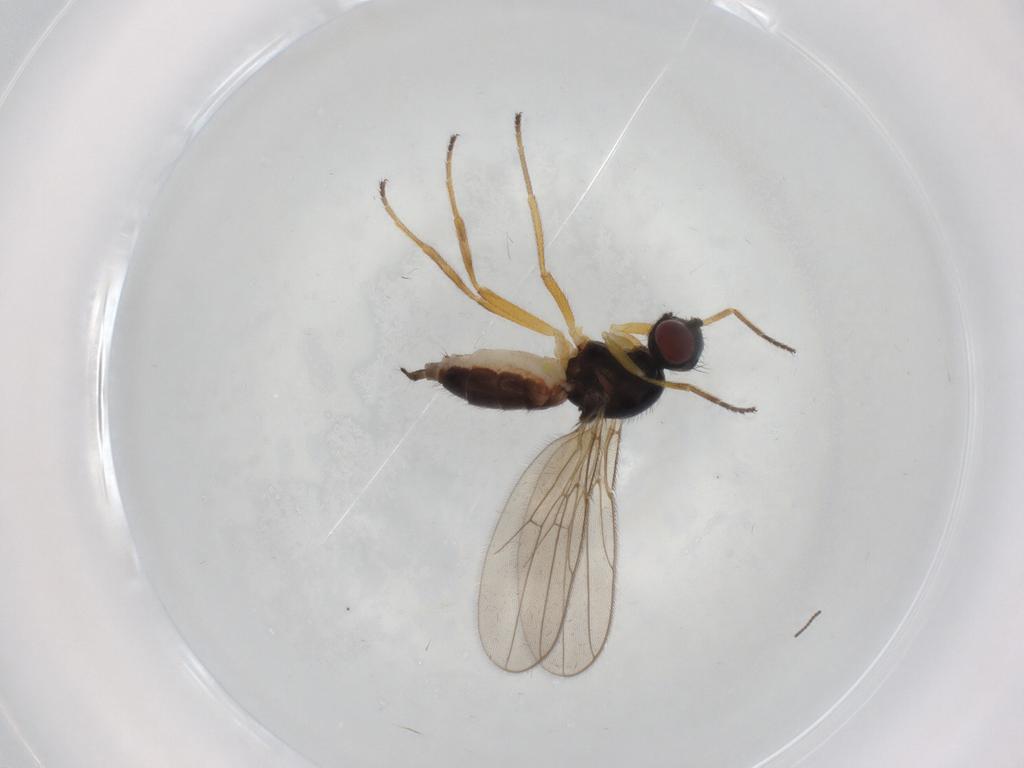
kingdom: Animalia
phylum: Arthropoda
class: Insecta
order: Diptera
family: Chloropidae
